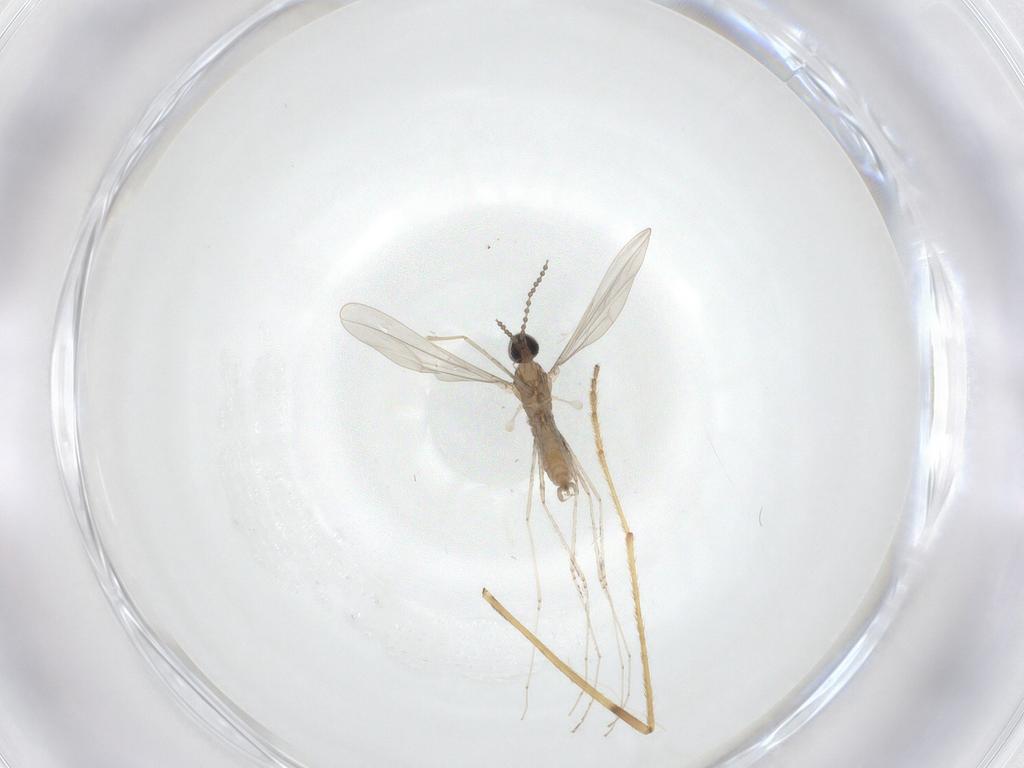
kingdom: Animalia
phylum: Arthropoda
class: Insecta
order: Diptera
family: Limoniidae
